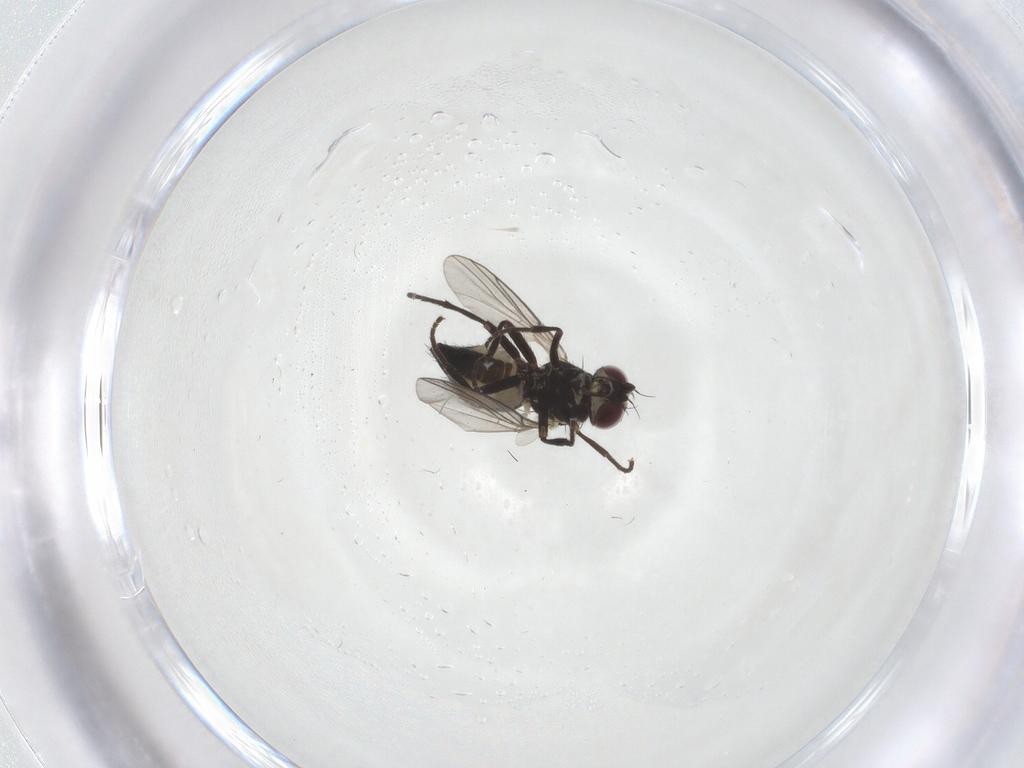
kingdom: Animalia
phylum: Arthropoda
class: Insecta
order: Diptera
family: Agromyzidae
